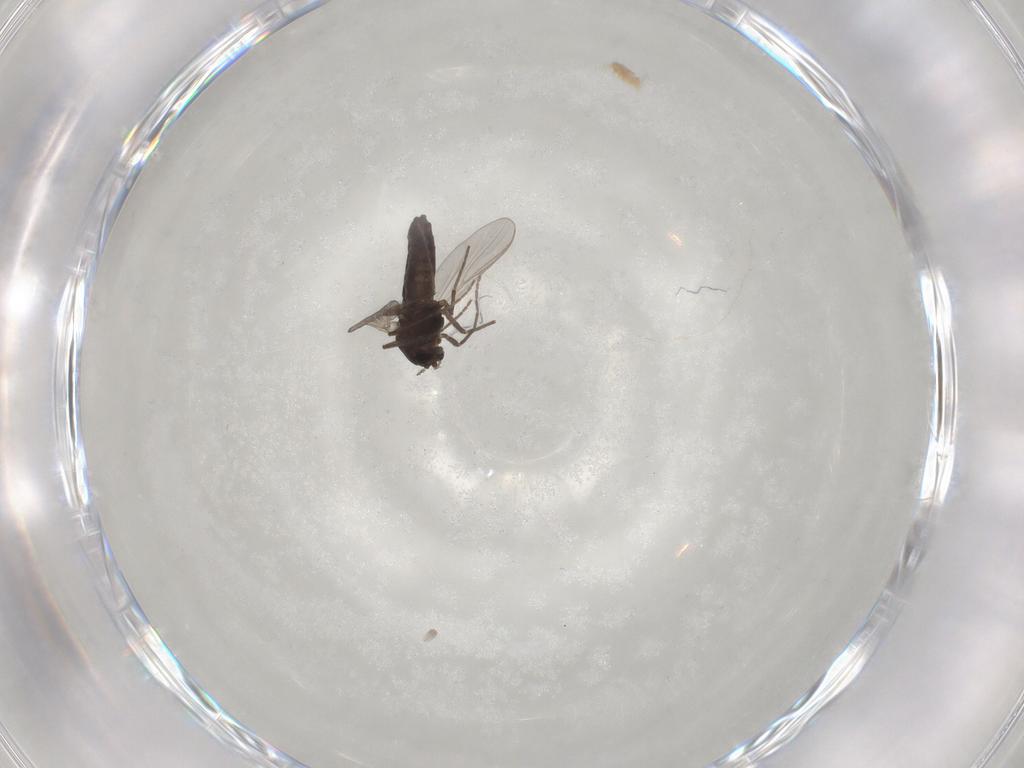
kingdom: Animalia
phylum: Arthropoda
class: Insecta
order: Diptera
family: Chironomidae
